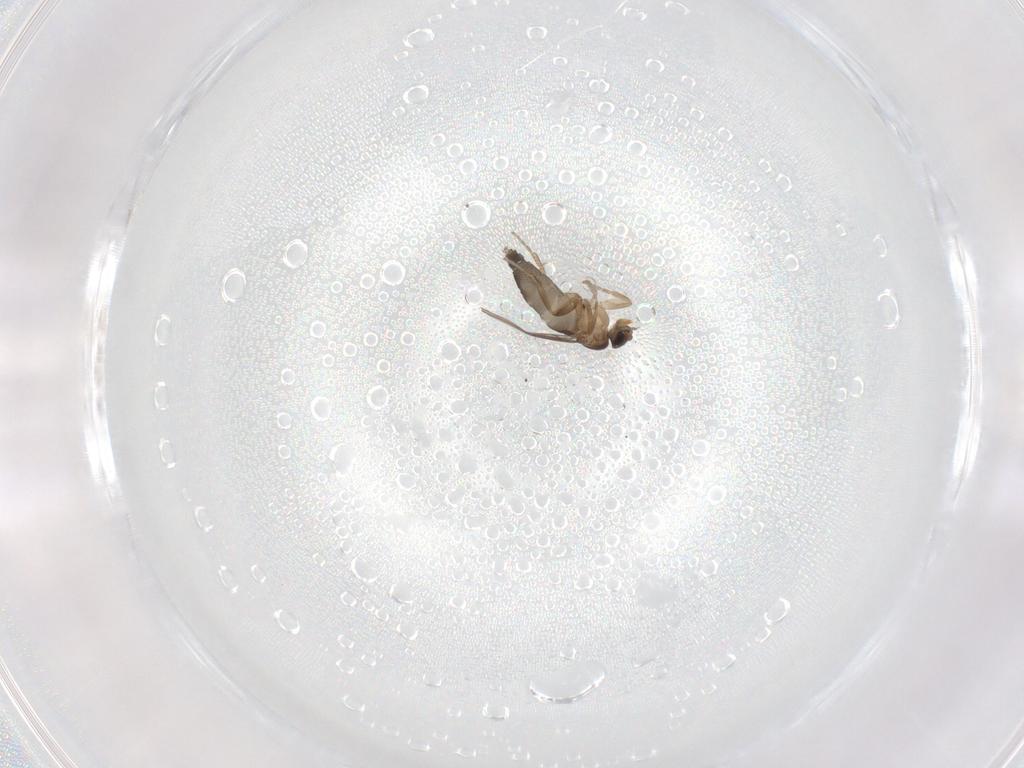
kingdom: Animalia
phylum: Arthropoda
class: Insecta
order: Diptera
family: Phoridae
